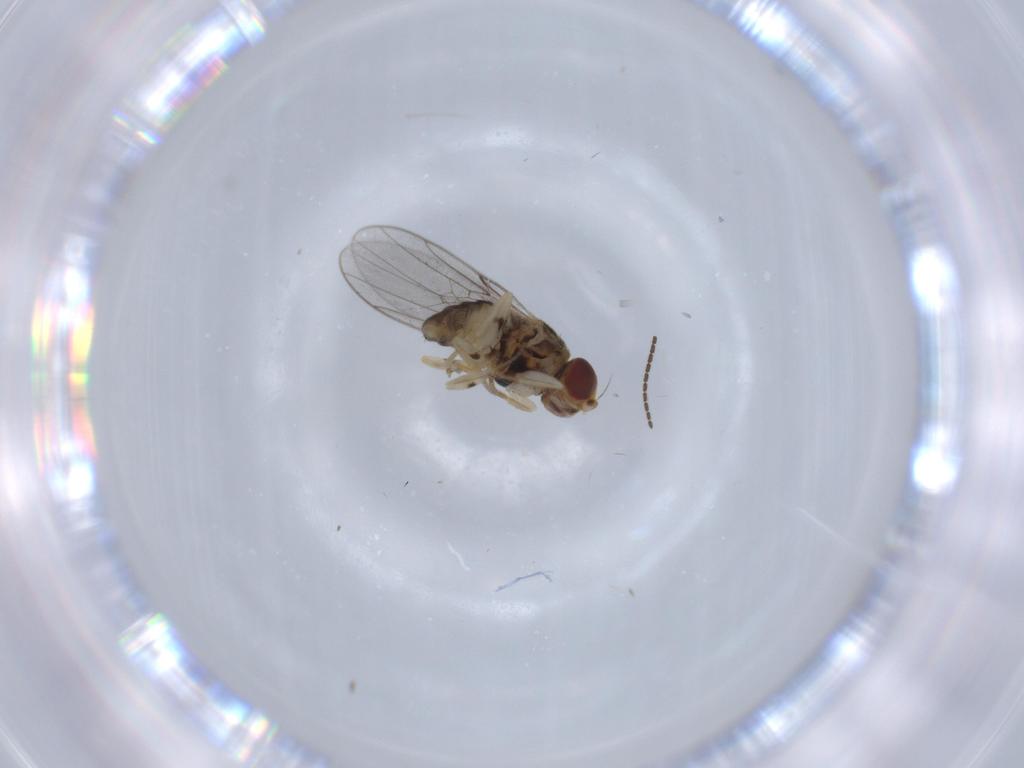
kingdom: Animalia
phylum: Arthropoda
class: Insecta
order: Diptera
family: Chloropidae
